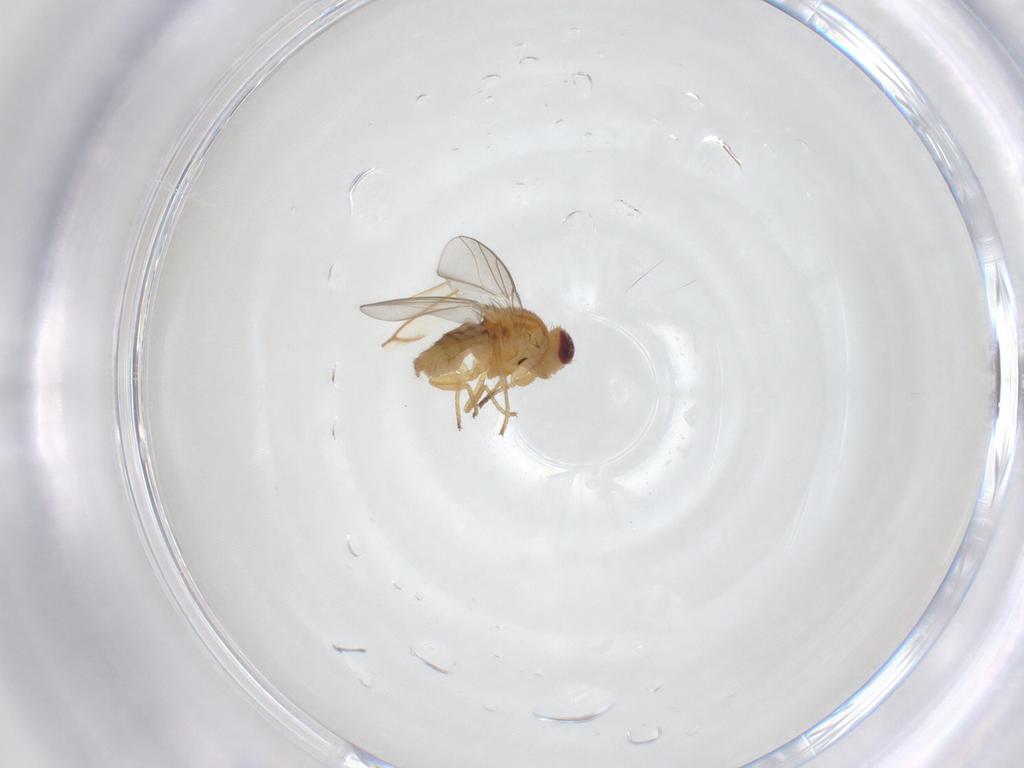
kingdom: Animalia
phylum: Arthropoda
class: Insecta
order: Diptera
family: Chloropidae
